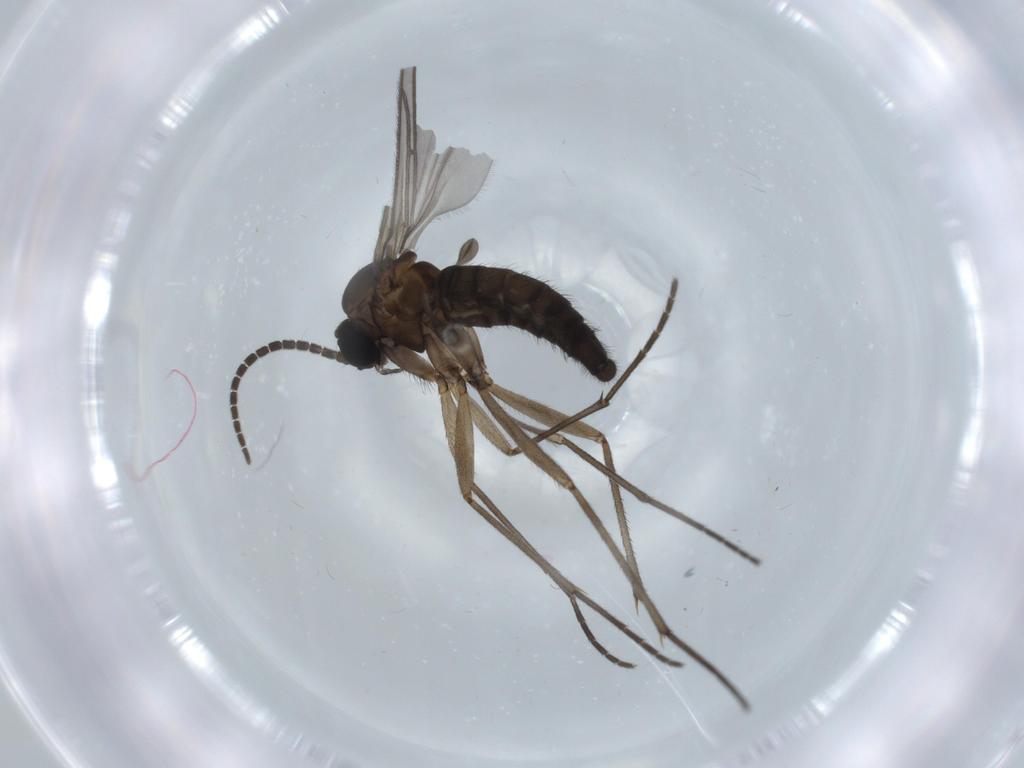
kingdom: Animalia
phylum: Arthropoda
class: Insecta
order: Diptera
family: Sciaridae
